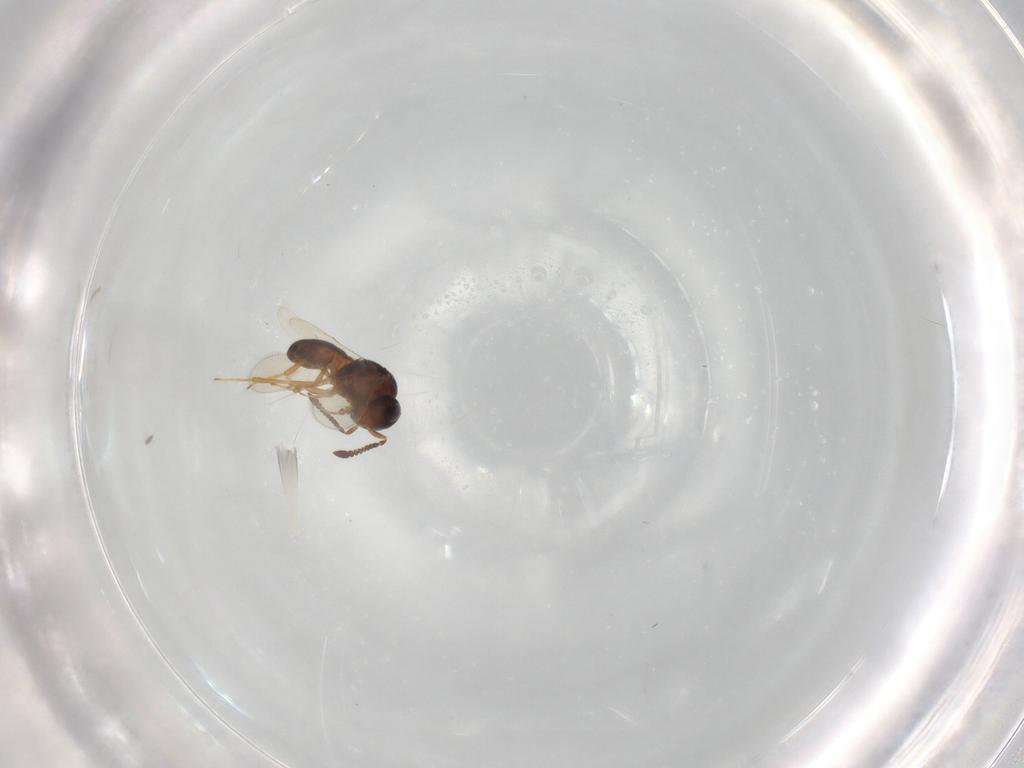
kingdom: Animalia
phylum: Arthropoda
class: Insecta
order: Hymenoptera
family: Scelionidae
